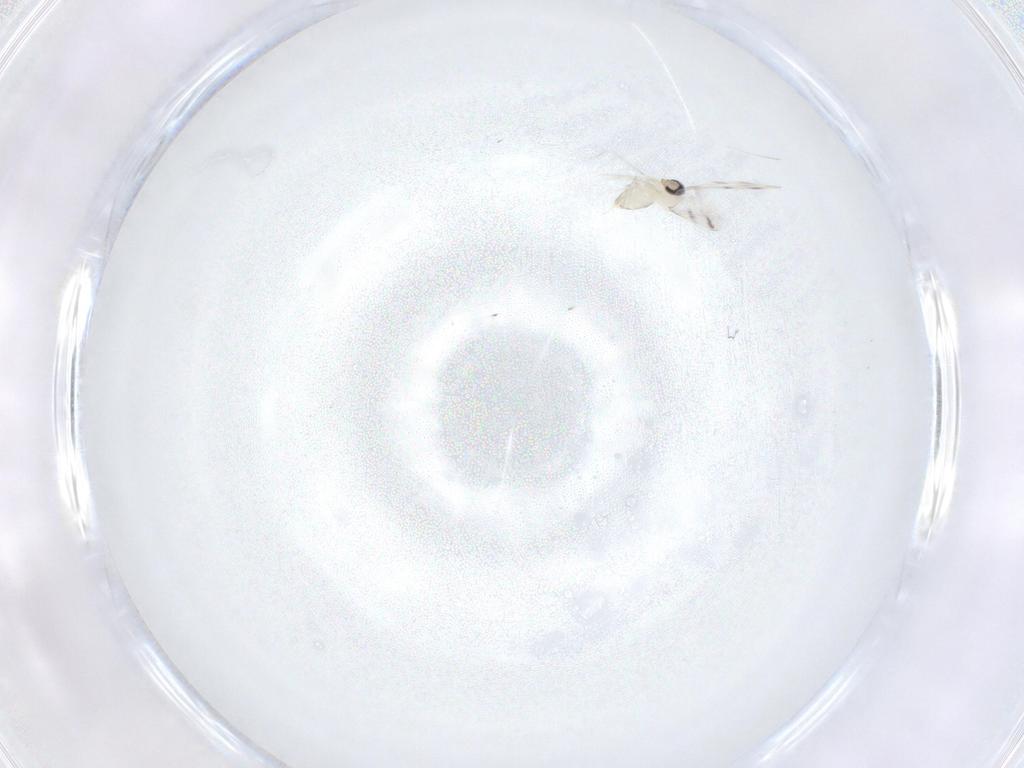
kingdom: Animalia
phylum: Arthropoda
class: Insecta
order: Diptera
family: Cecidomyiidae
